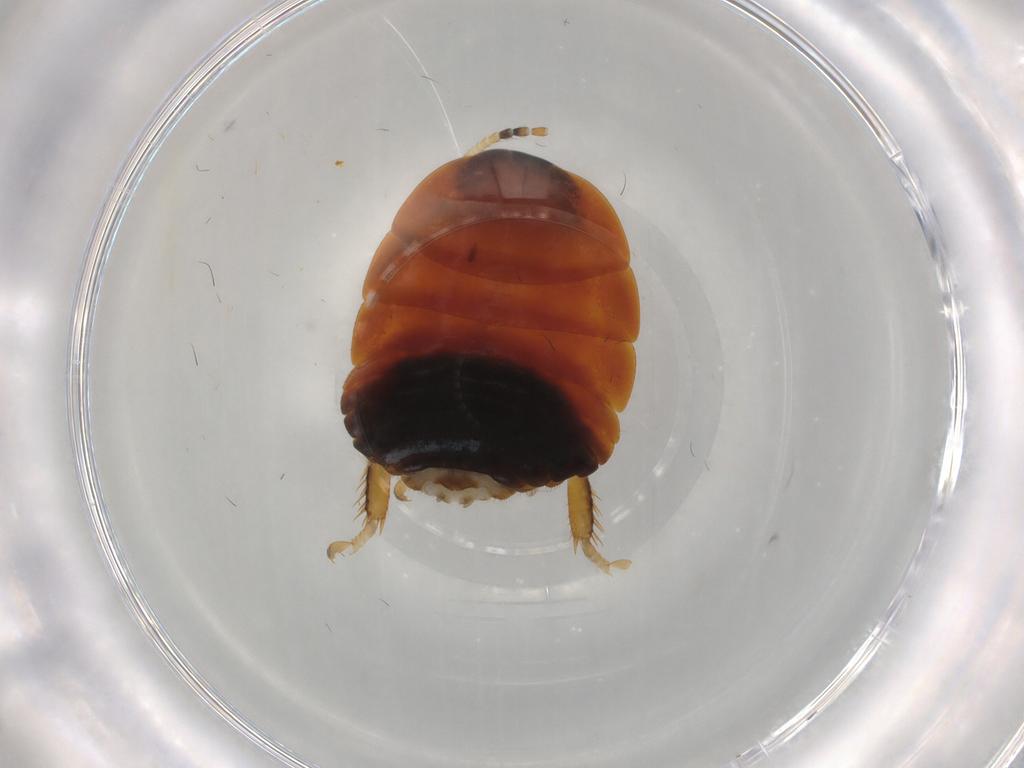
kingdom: Animalia
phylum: Arthropoda
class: Insecta
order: Blattodea
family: Blaberidae
